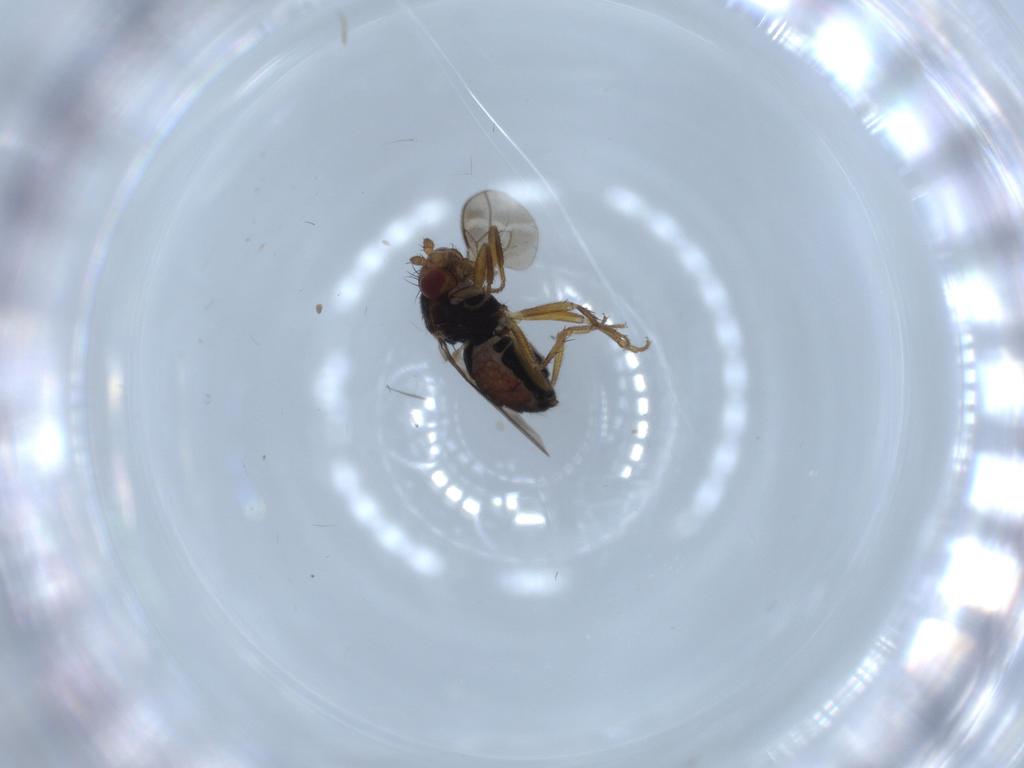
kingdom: Animalia
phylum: Arthropoda
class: Insecta
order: Diptera
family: Sphaeroceridae
